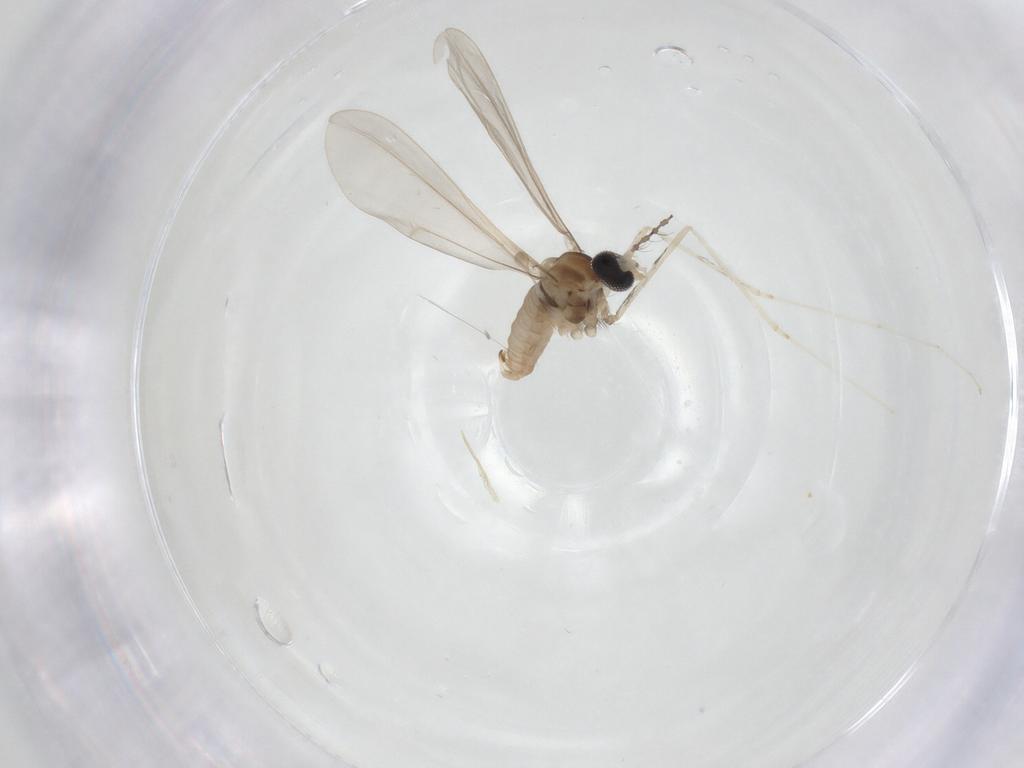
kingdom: Animalia
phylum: Arthropoda
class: Insecta
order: Diptera
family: Cecidomyiidae
